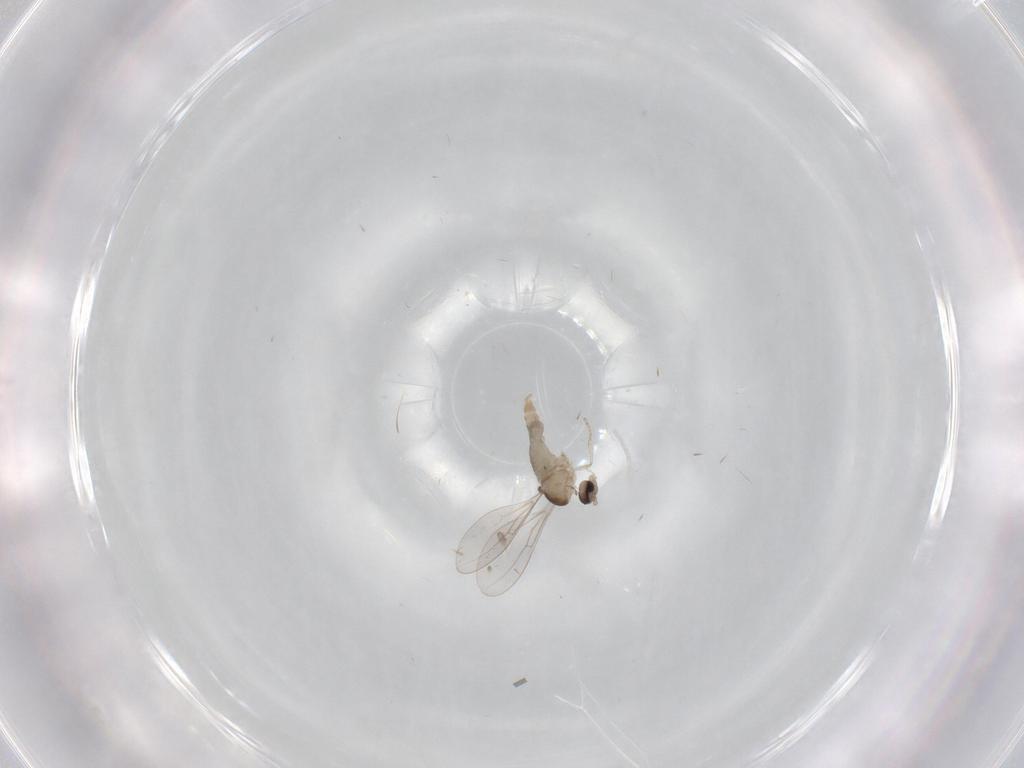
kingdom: Animalia
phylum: Arthropoda
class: Insecta
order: Diptera
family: Cecidomyiidae
